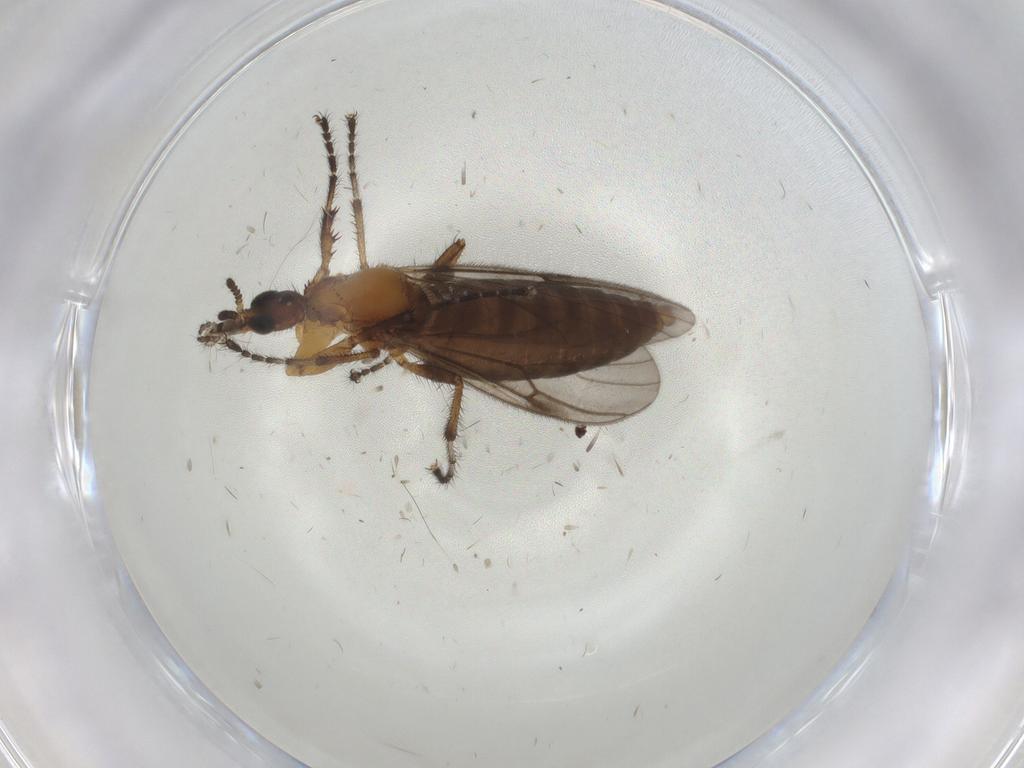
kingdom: Animalia
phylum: Arthropoda
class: Insecta
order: Diptera
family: Bibionidae
